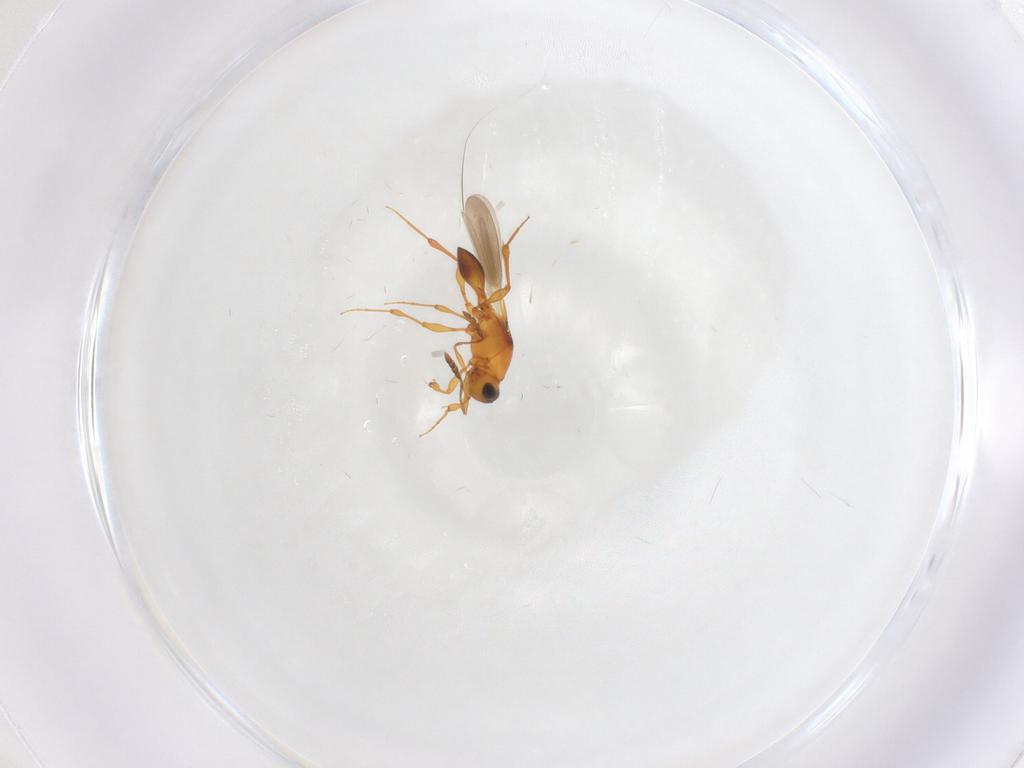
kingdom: Animalia
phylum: Arthropoda
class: Insecta
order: Hymenoptera
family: Platygastridae
